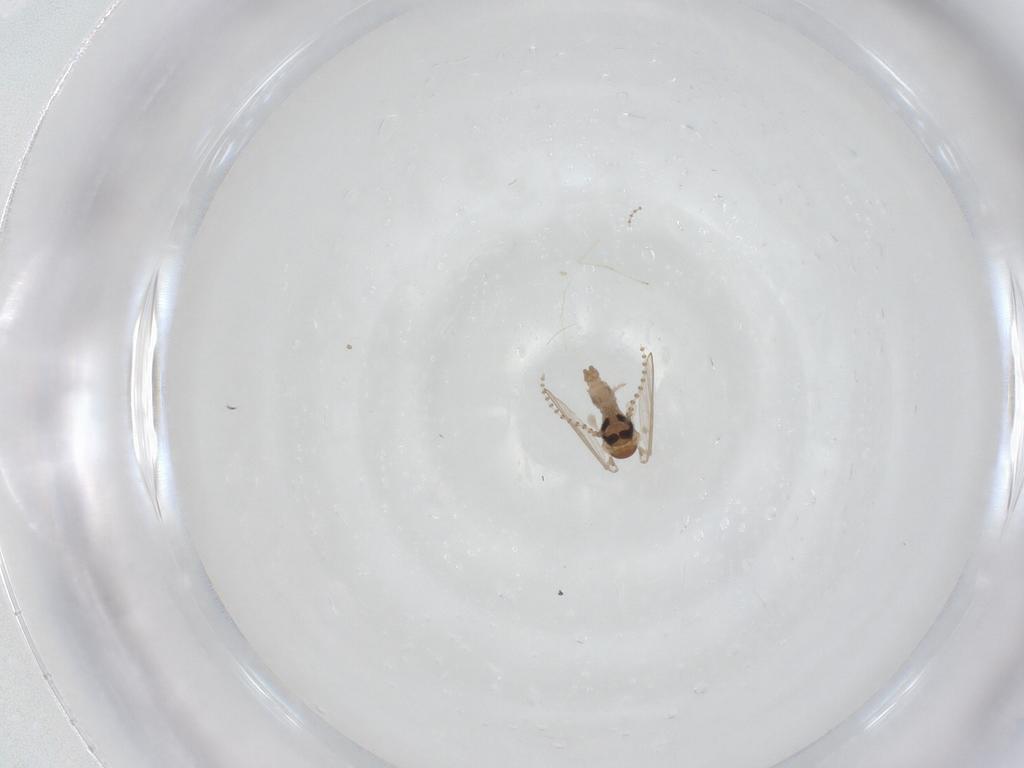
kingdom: Animalia
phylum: Arthropoda
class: Insecta
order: Diptera
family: Psychodidae
